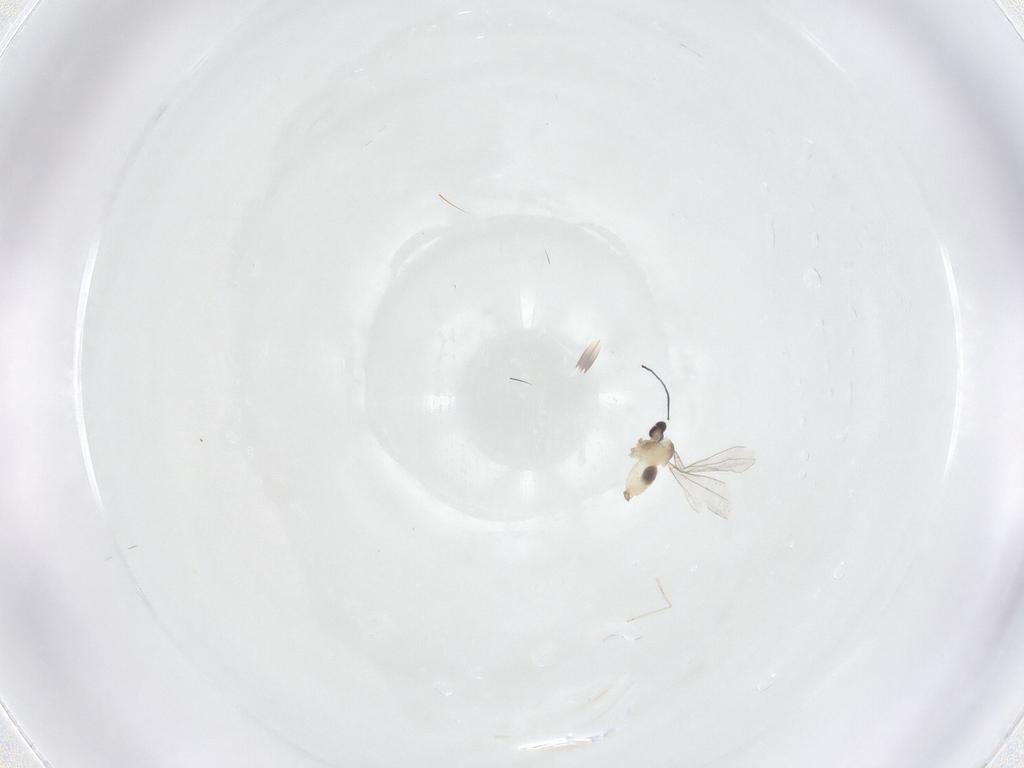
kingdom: Animalia
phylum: Arthropoda
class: Insecta
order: Diptera
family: Cecidomyiidae
